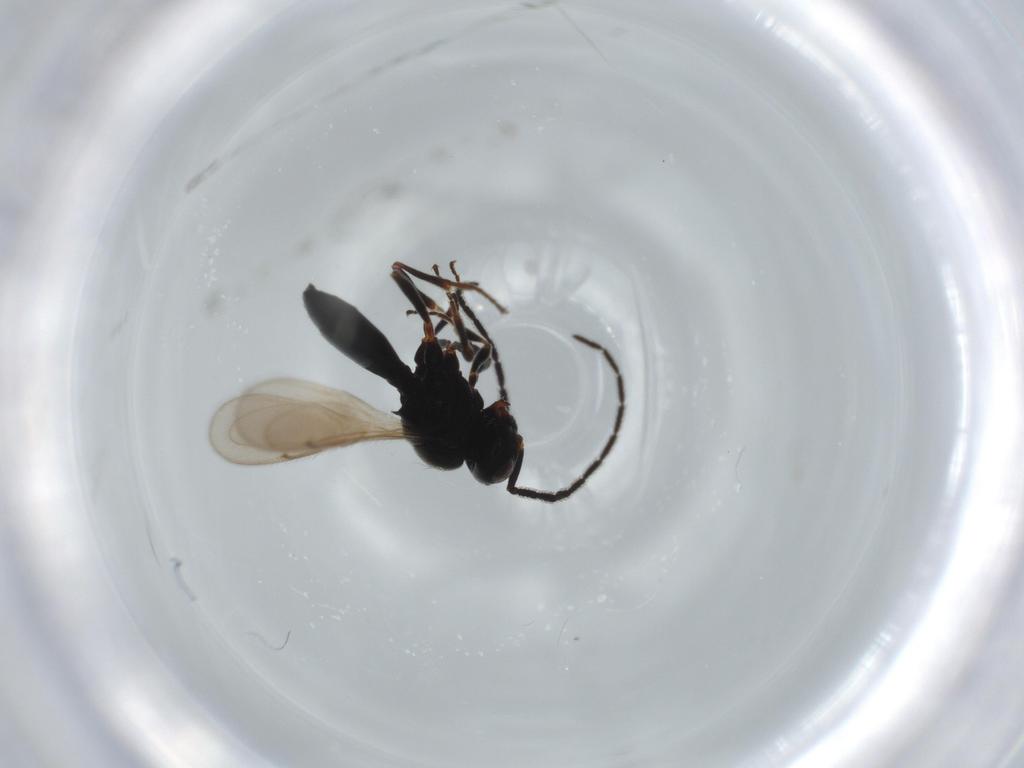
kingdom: Animalia
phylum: Arthropoda
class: Insecta
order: Hymenoptera
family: Scelionidae
